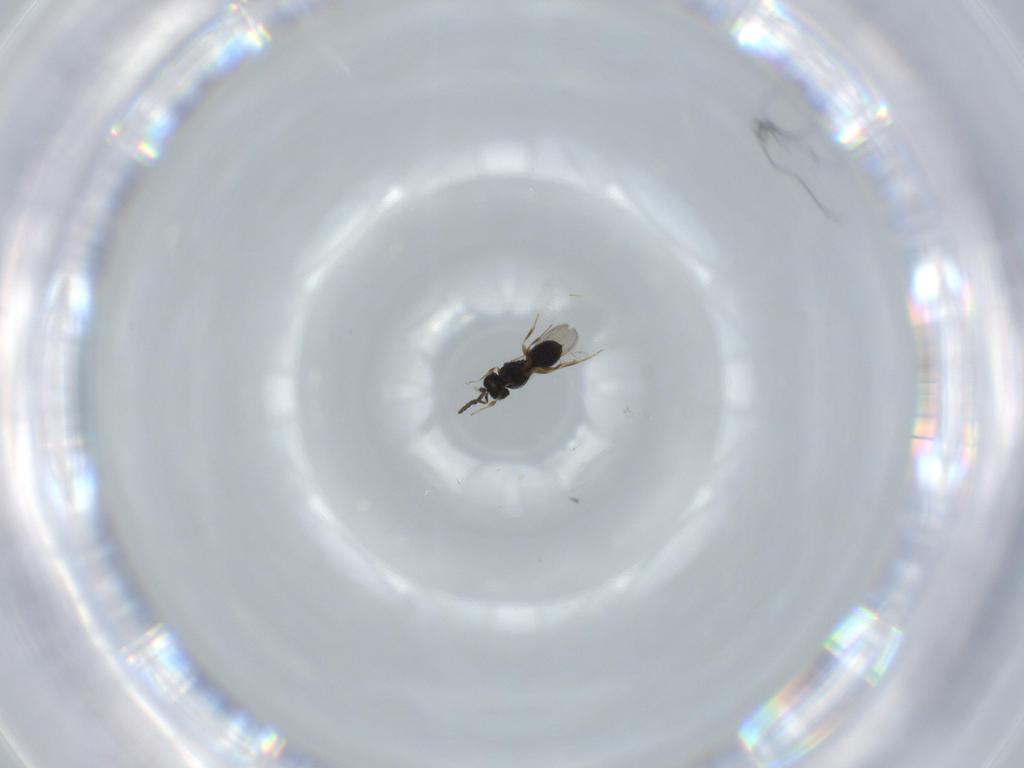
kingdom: Animalia
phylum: Arthropoda
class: Insecta
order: Hymenoptera
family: Scelionidae
